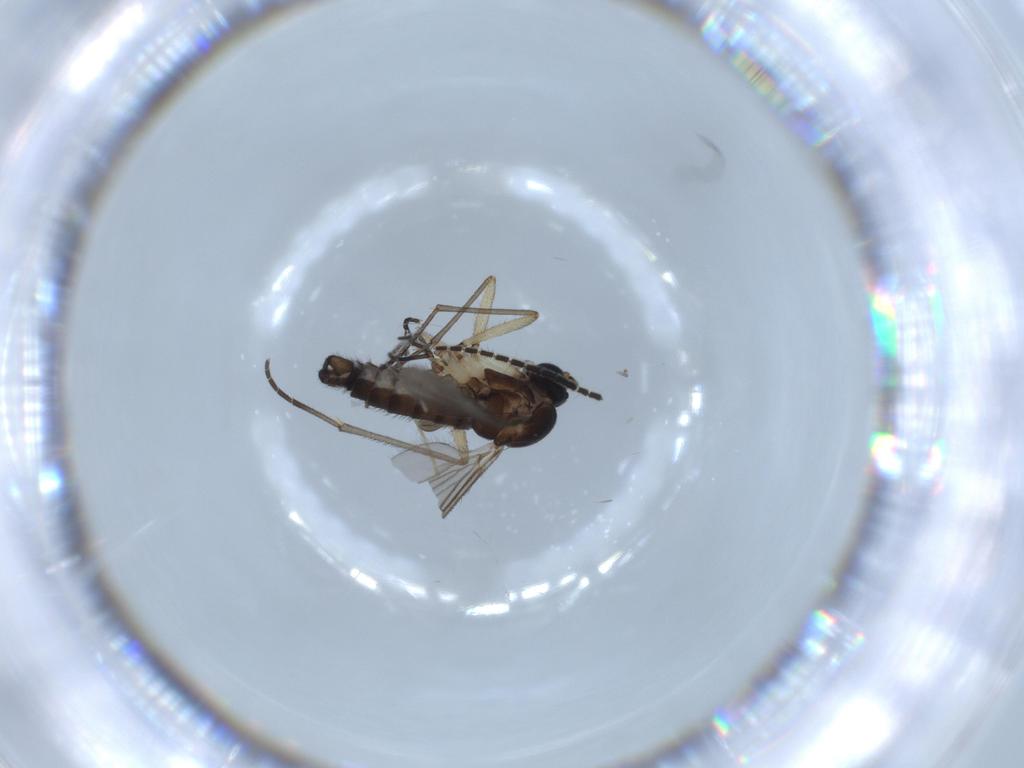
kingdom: Animalia
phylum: Arthropoda
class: Insecta
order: Diptera
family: Sciaridae
